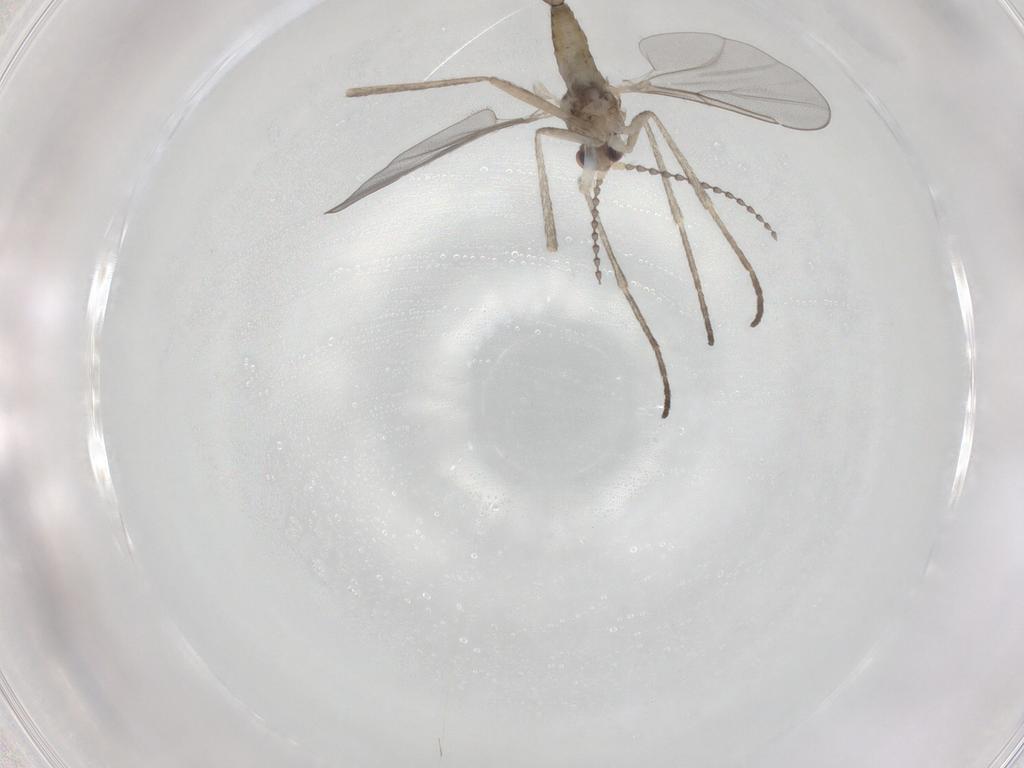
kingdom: Animalia
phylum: Arthropoda
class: Insecta
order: Diptera
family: Cecidomyiidae
